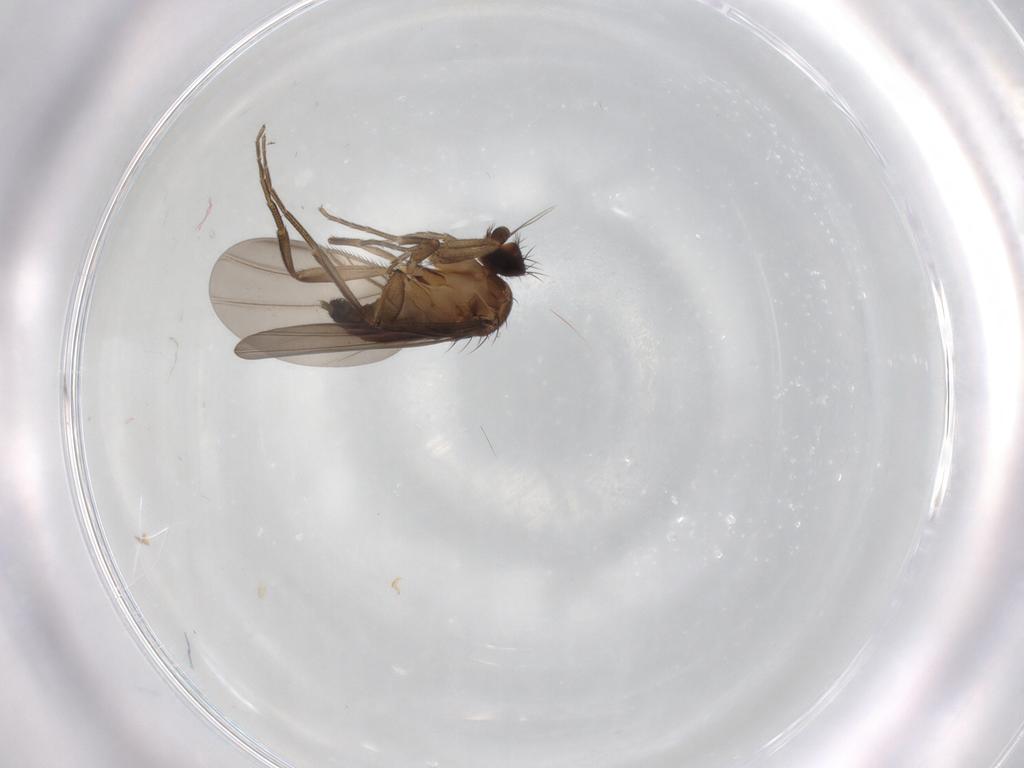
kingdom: Animalia
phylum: Arthropoda
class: Insecta
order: Diptera
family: Phoridae
